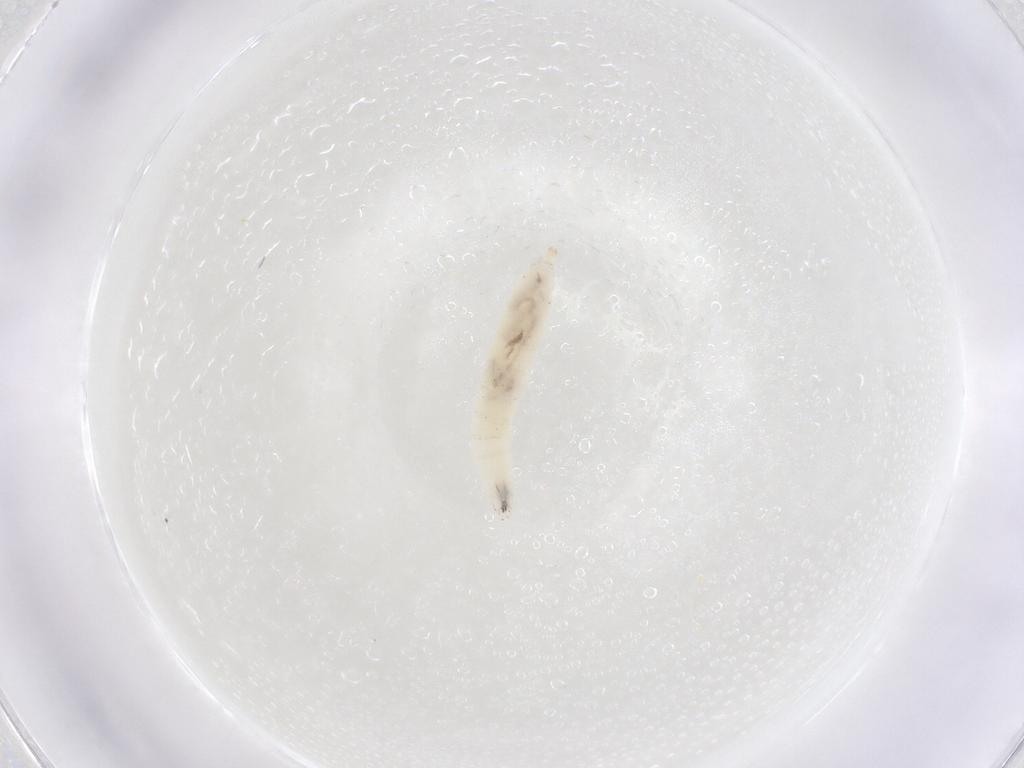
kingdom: Animalia
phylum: Arthropoda
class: Insecta
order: Diptera
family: Drosophilidae
